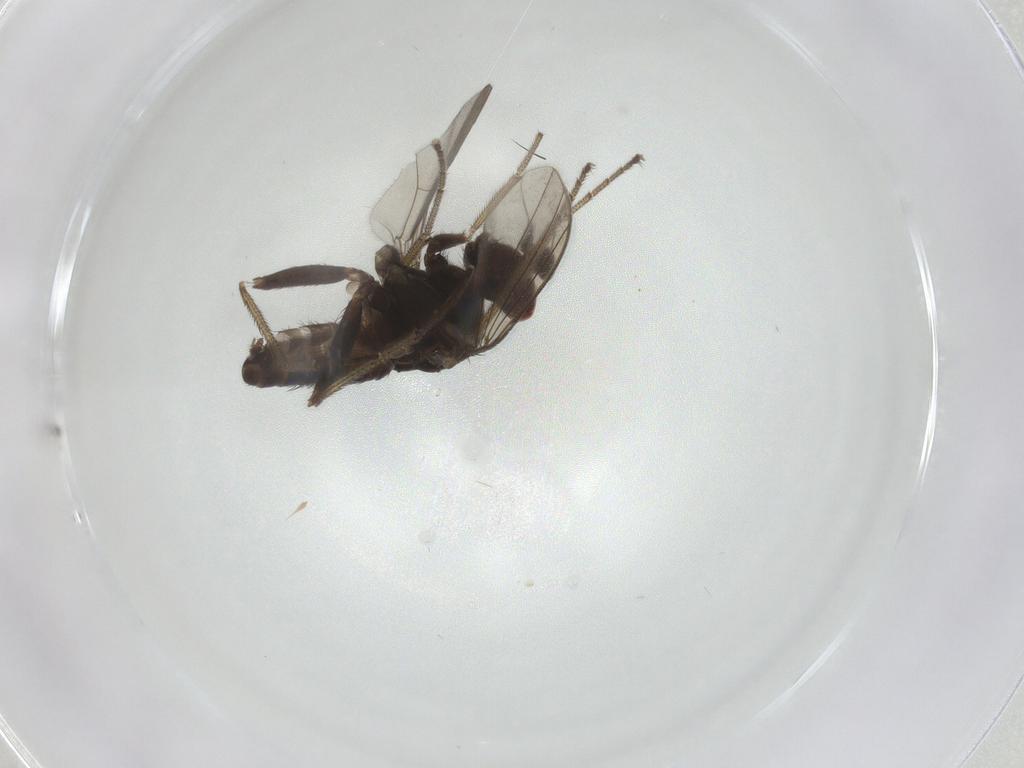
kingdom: Animalia
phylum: Arthropoda
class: Insecta
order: Diptera
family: Dolichopodidae
